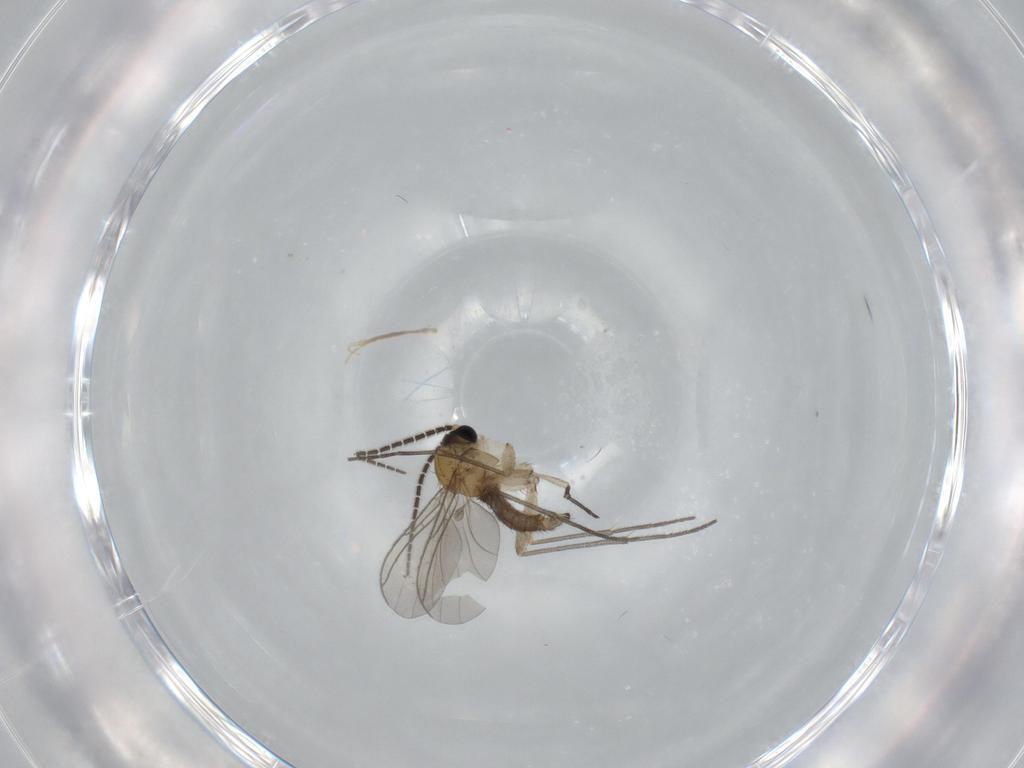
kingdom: Animalia
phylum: Arthropoda
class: Insecta
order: Diptera
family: Sciaridae
